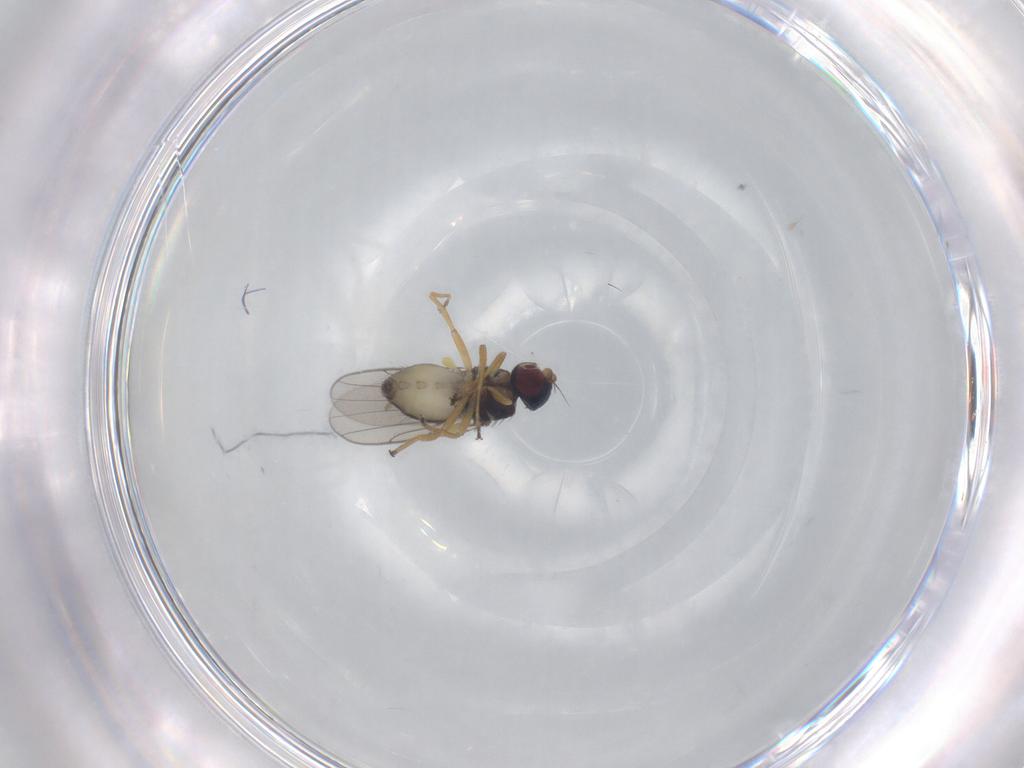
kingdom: Animalia
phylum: Arthropoda
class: Insecta
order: Diptera
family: Chloropidae
